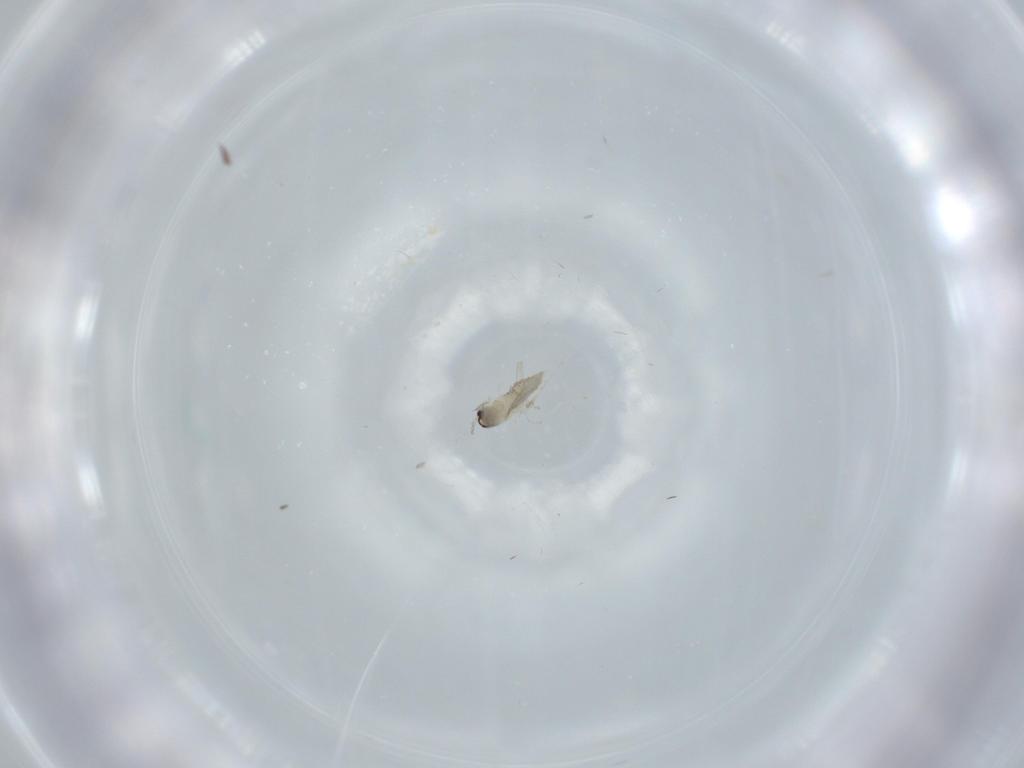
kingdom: Animalia
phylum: Arthropoda
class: Insecta
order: Diptera
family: Cecidomyiidae
